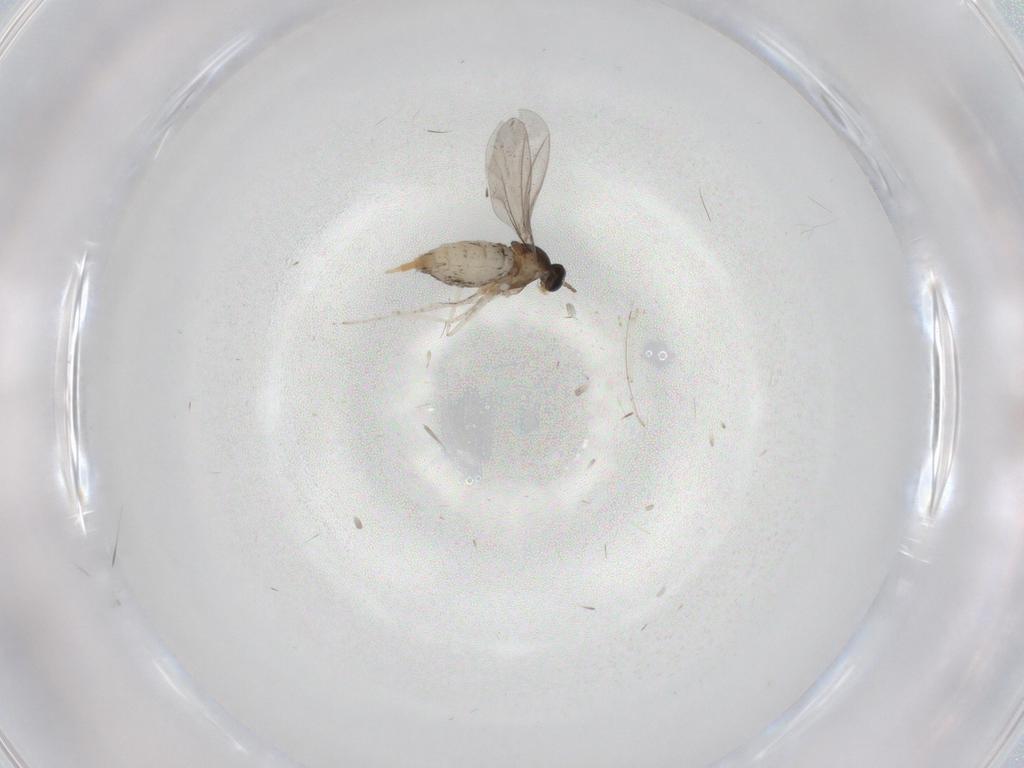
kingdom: Animalia
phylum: Arthropoda
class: Insecta
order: Diptera
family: Cecidomyiidae
